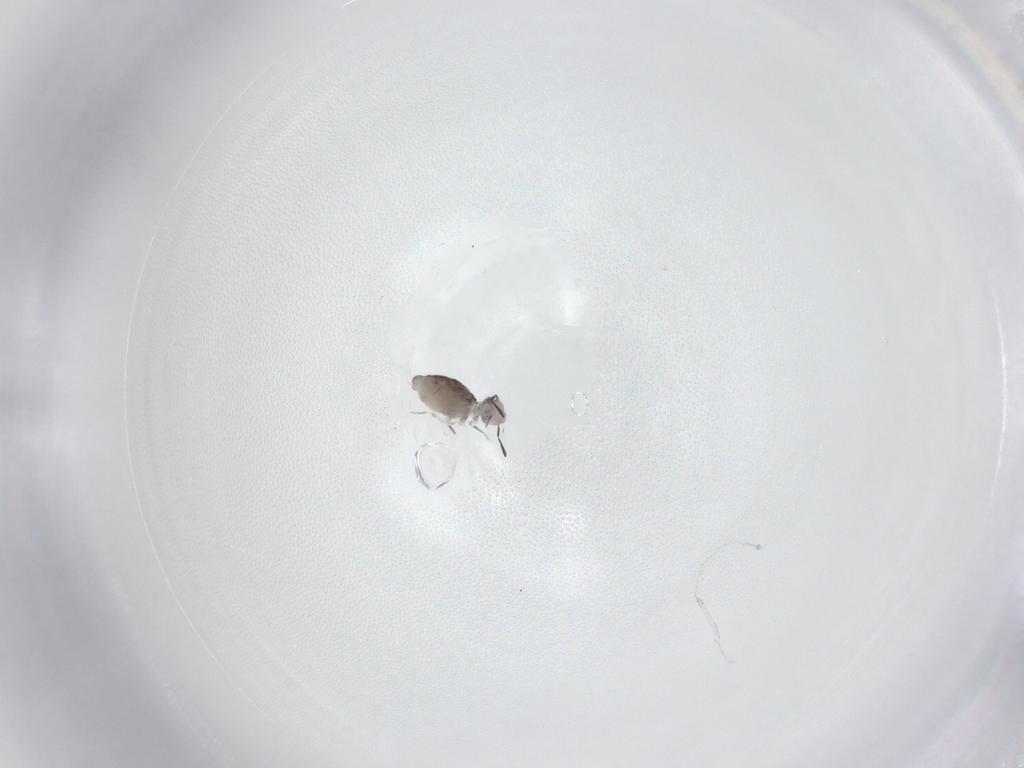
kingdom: Animalia
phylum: Arthropoda
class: Collembola
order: Symphypleona
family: Katiannidae
